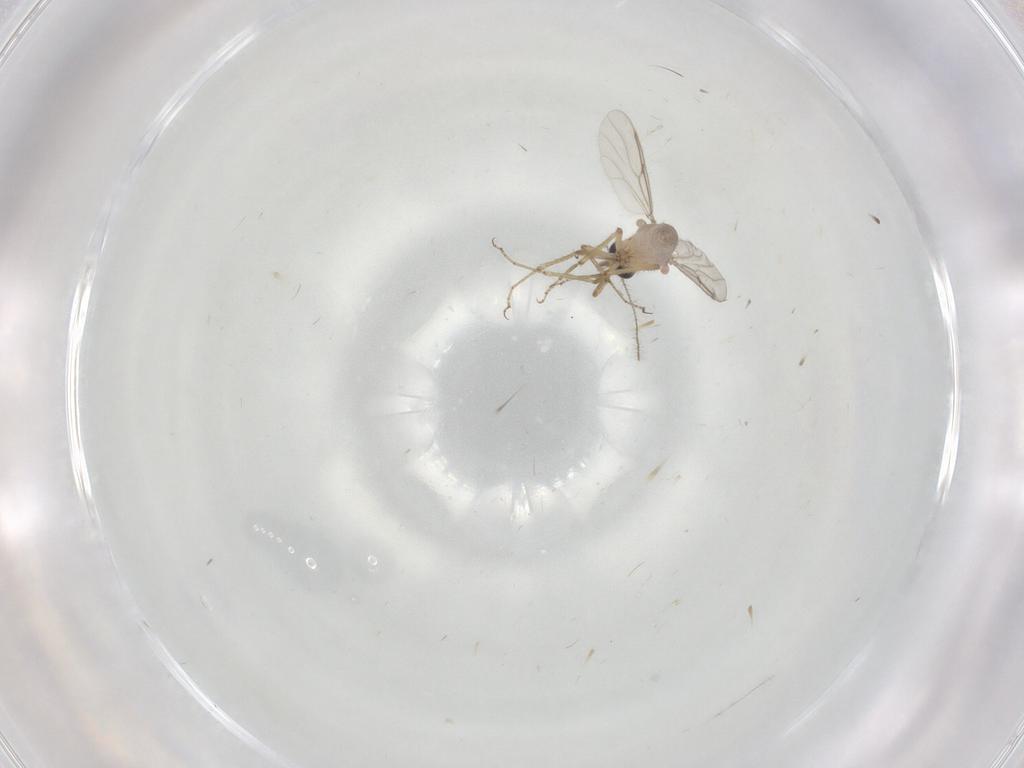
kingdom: Animalia
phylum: Arthropoda
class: Insecta
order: Diptera
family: Cecidomyiidae
